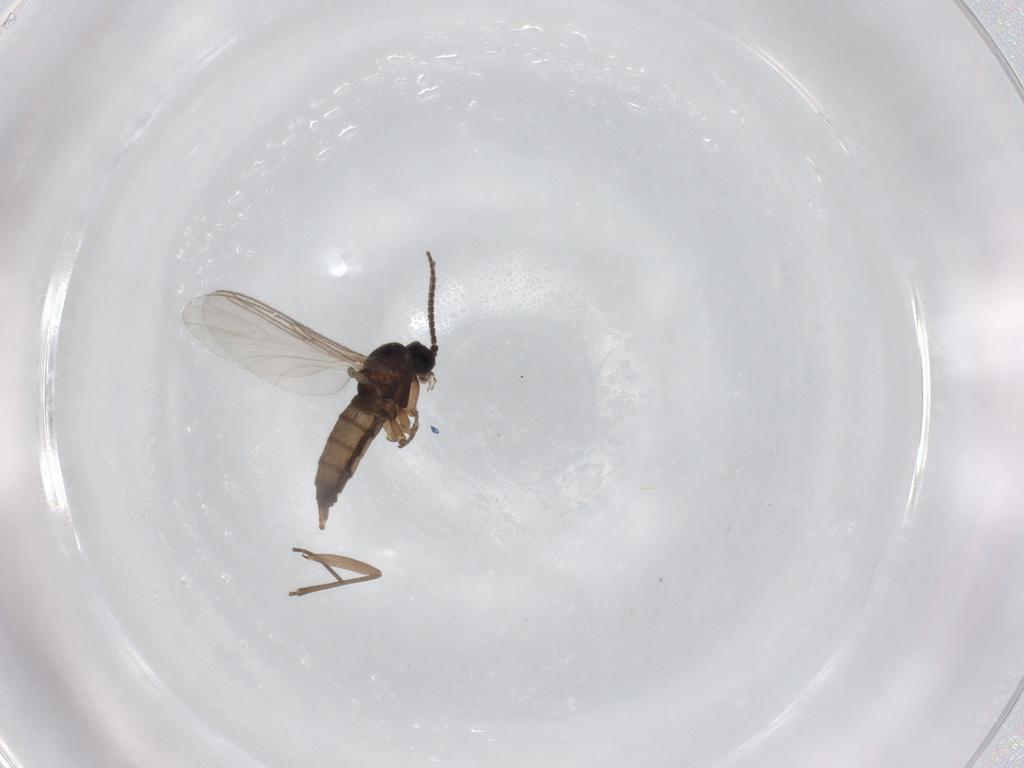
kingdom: Animalia
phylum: Arthropoda
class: Insecta
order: Diptera
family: Sciaridae
